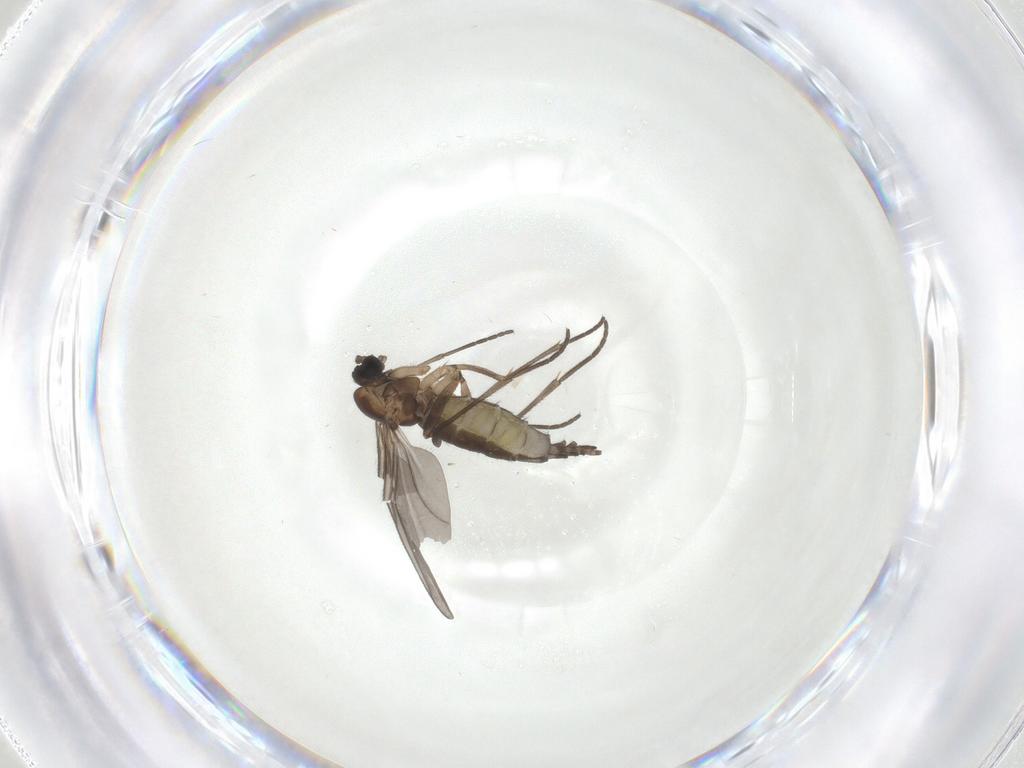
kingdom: Animalia
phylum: Arthropoda
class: Insecta
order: Diptera
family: Sciaridae
